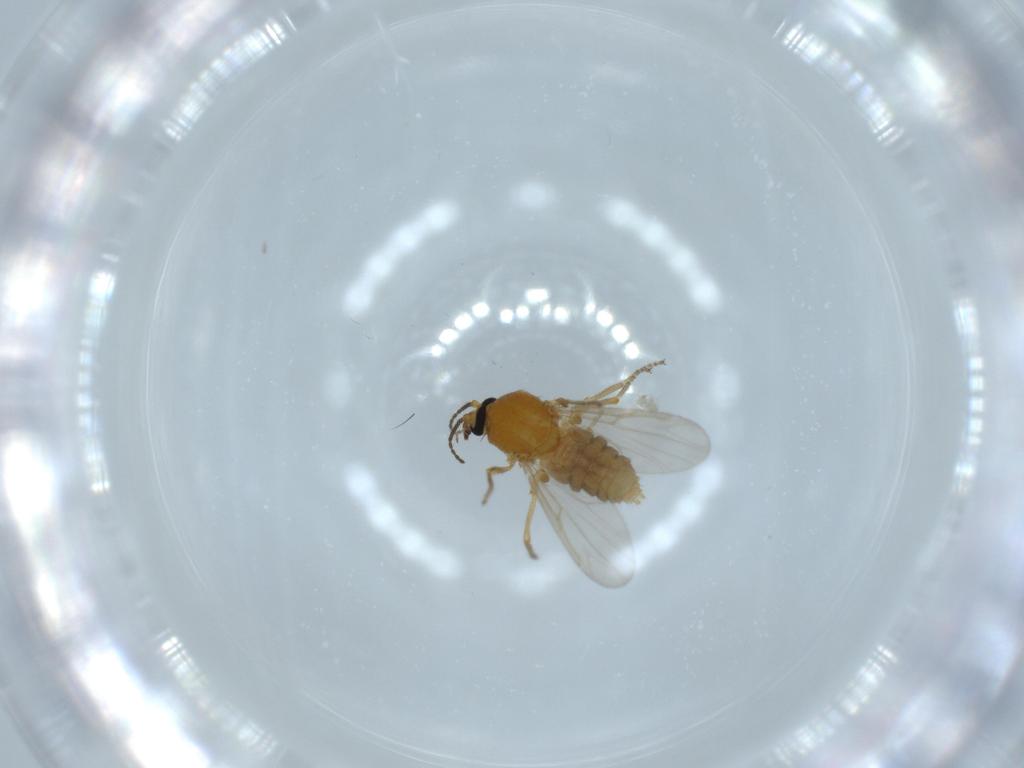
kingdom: Animalia
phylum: Arthropoda
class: Insecta
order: Diptera
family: Ceratopogonidae
